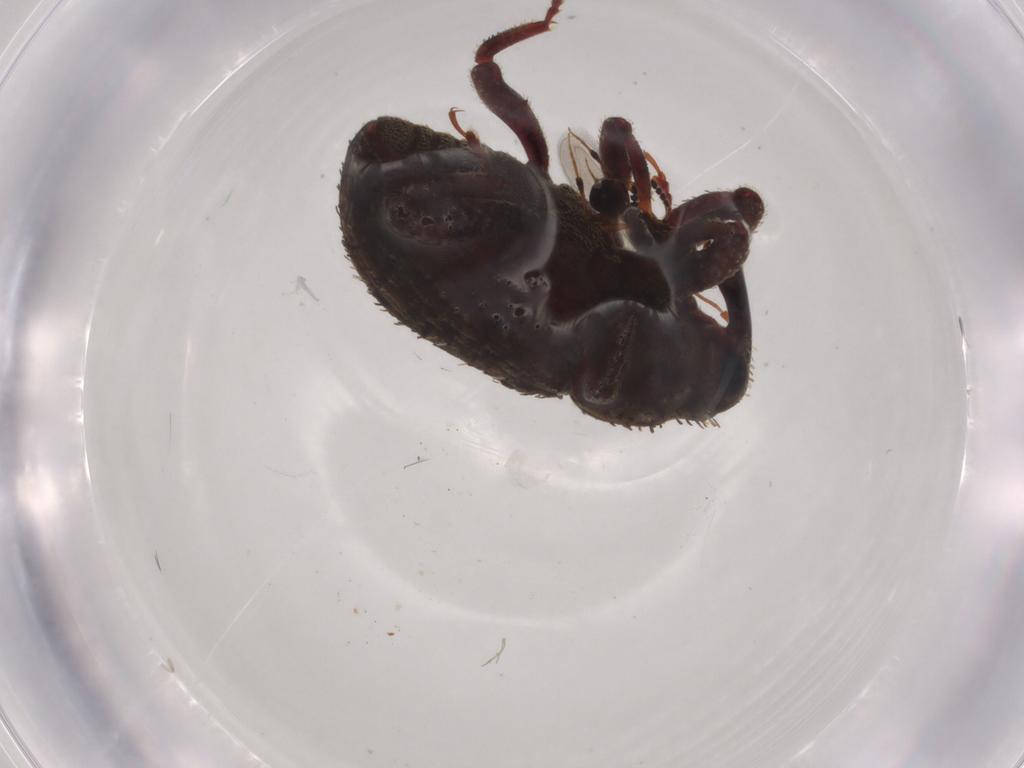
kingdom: Animalia
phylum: Arthropoda
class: Insecta
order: Coleoptera
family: Curculionidae
